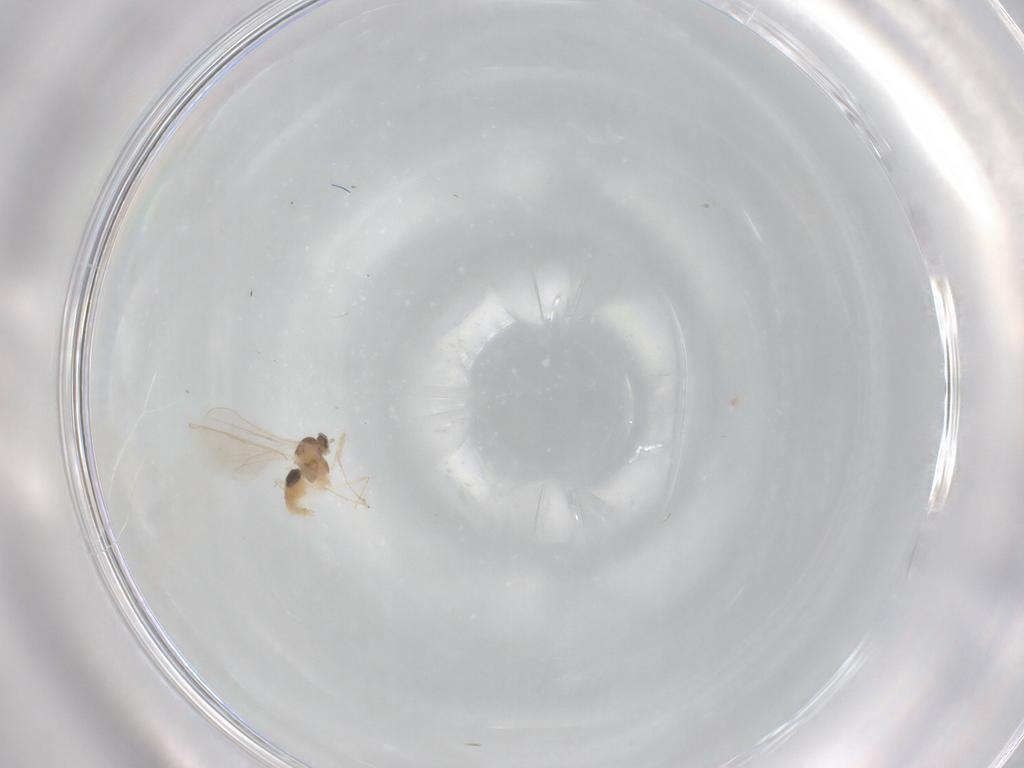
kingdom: Animalia
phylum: Arthropoda
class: Insecta
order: Diptera
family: Cecidomyiidae
